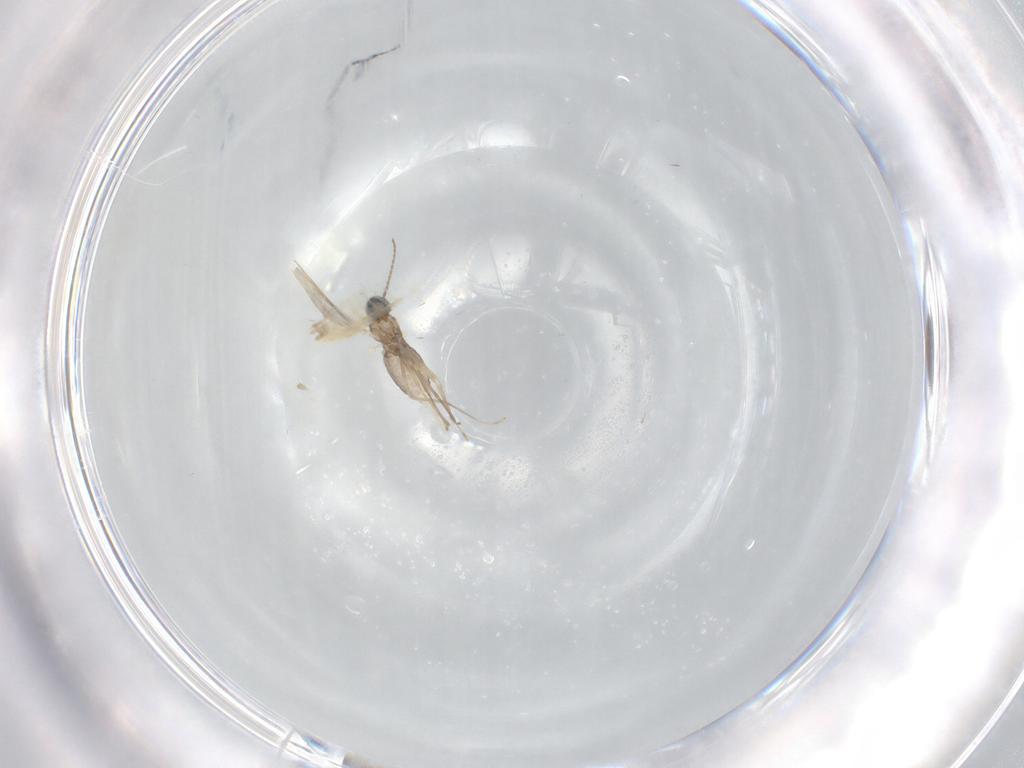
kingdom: Animalia
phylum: Arthropoda
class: Insecta
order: Diptera
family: Cecidomyiidae
